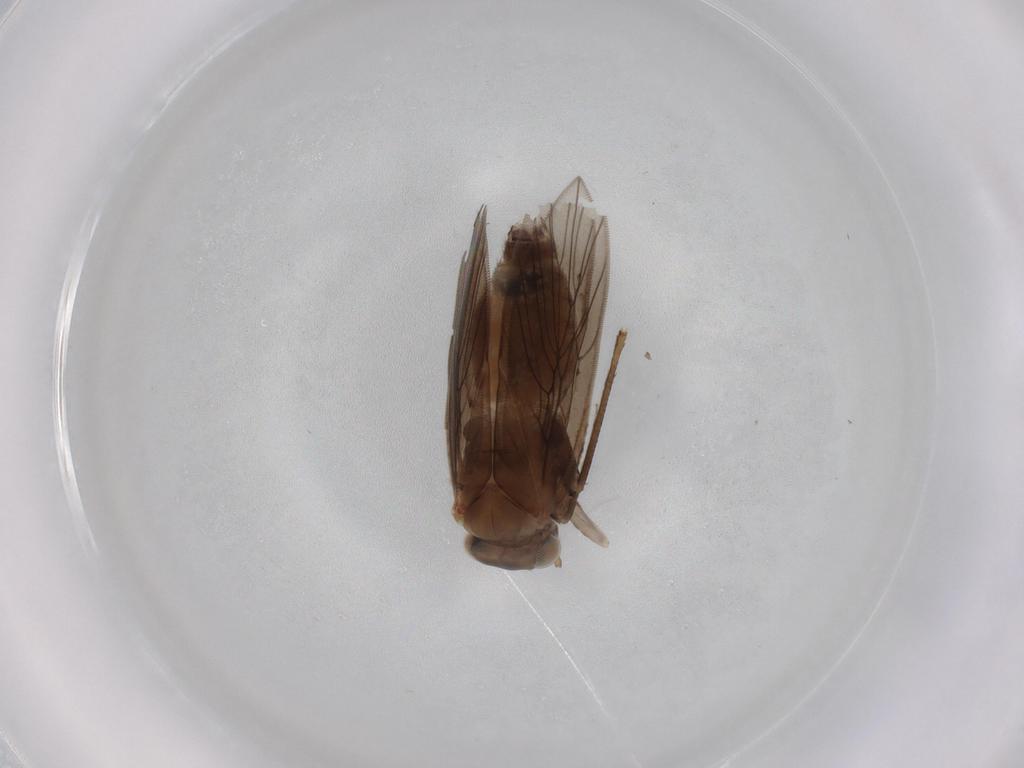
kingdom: Animalia
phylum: Arthropoda
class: Insecta
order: Psocodea
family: Lepidopsocidae
